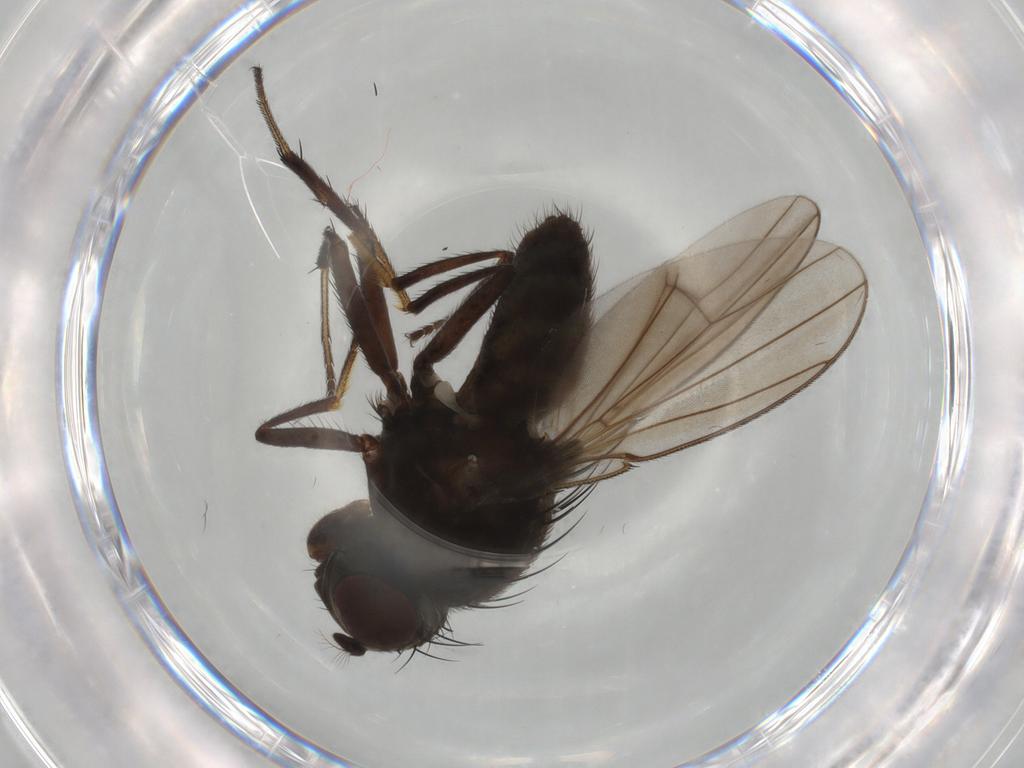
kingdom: Animalia
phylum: Arthropoda
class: Insecta
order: Diptera
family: Ephydridae
